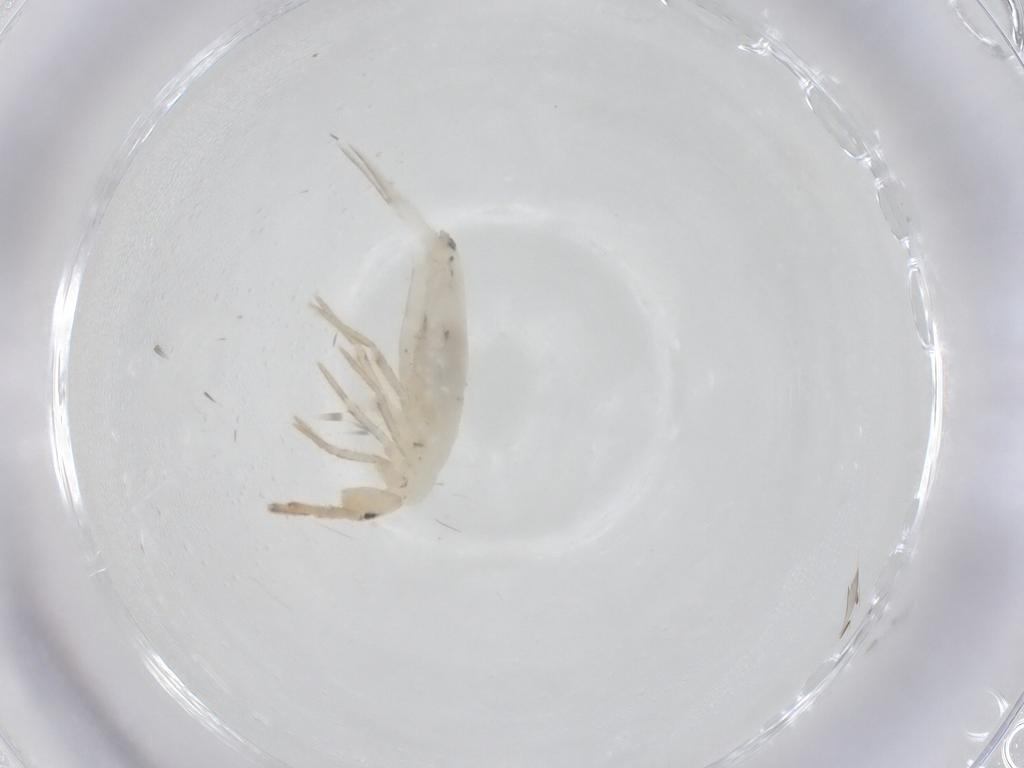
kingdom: Animalia
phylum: Arthropoda
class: Collembola
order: Entomobryomorpha
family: Entomobryidae
